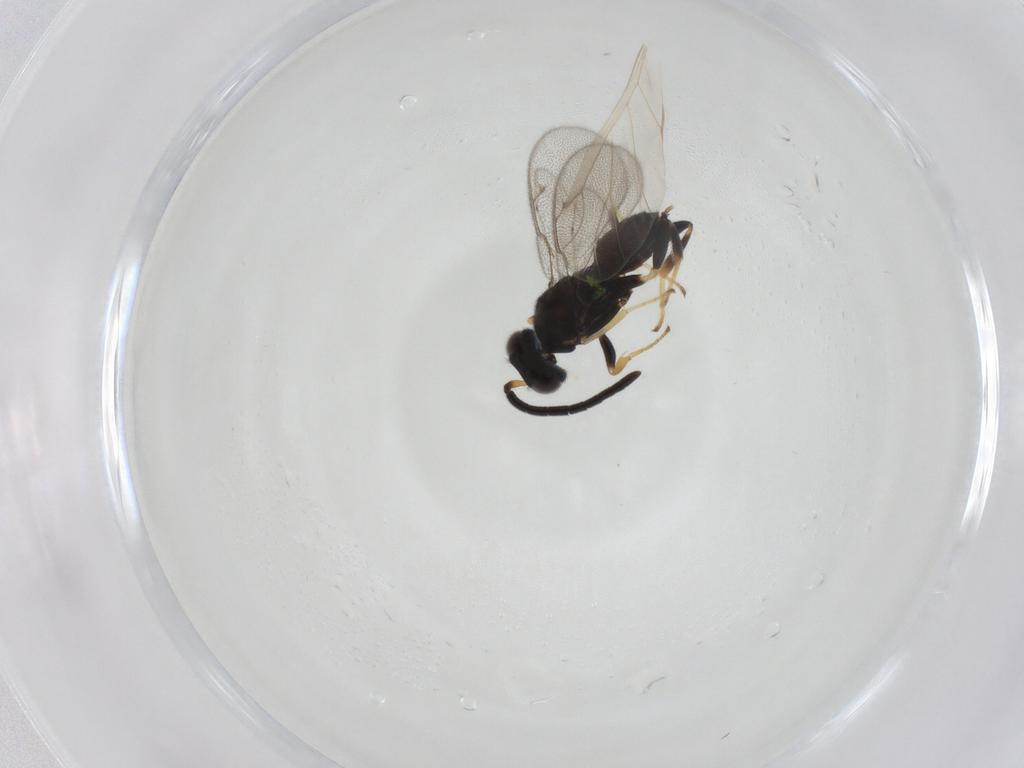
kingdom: Animalia
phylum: Arthropoda
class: Insecta
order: Hymenoptera
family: Eupelmidae
